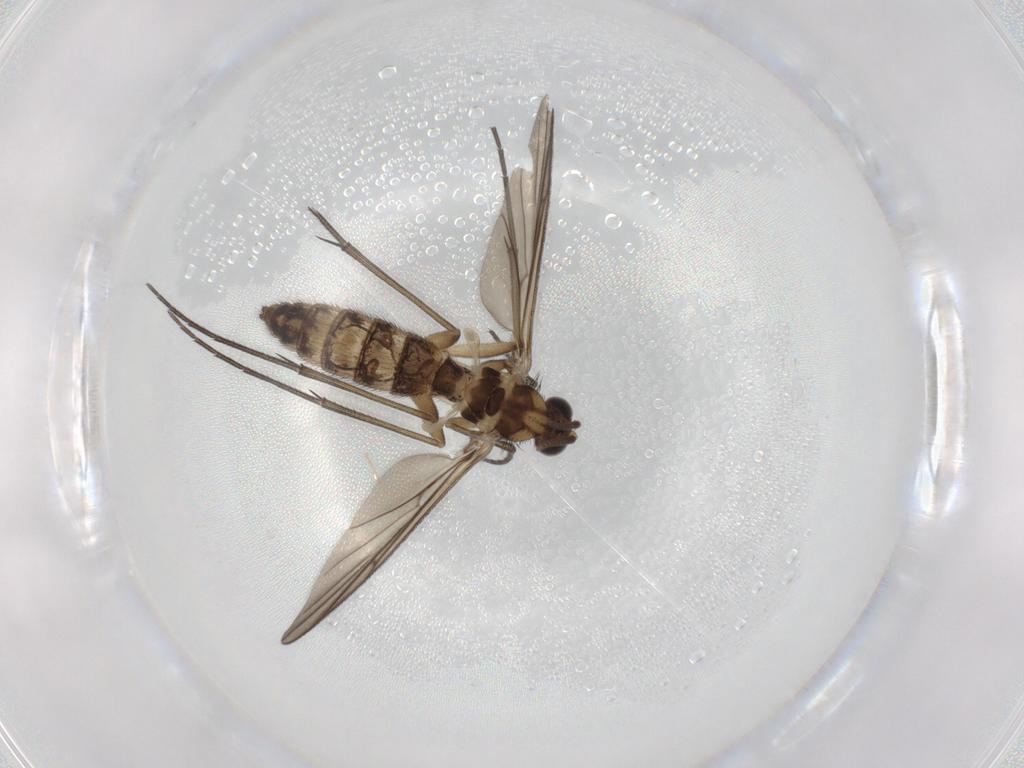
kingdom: Animalia
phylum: Arthropoda
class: Insecta
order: Diptera
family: Keroplatidae
